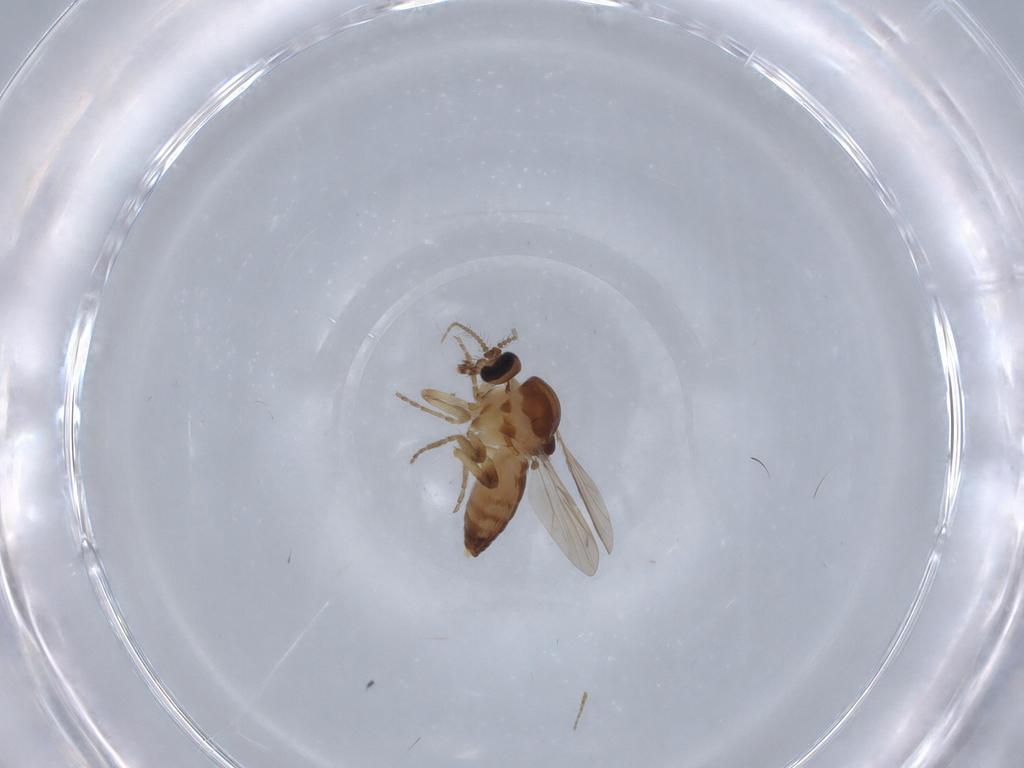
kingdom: Animalia
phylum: Arthropoda
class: Insecta
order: Diptera
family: Ceratopogonidae
